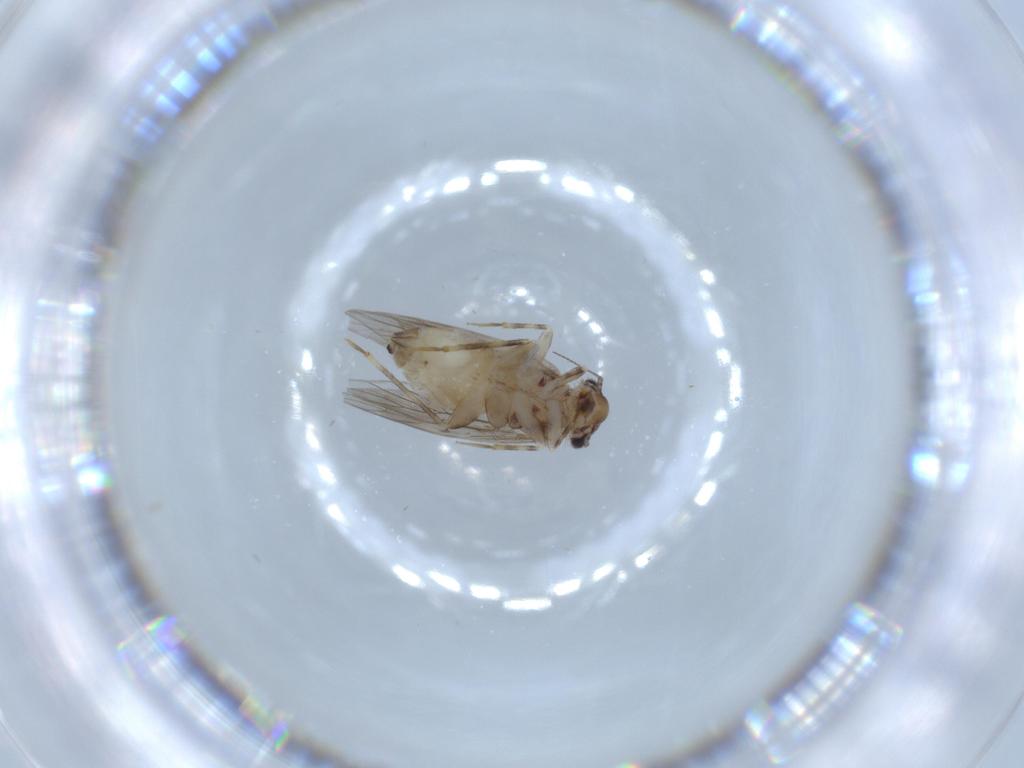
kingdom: Animalia
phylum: Arthropoda
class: Insecta
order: Psocodea
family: Lepidopsocidae
